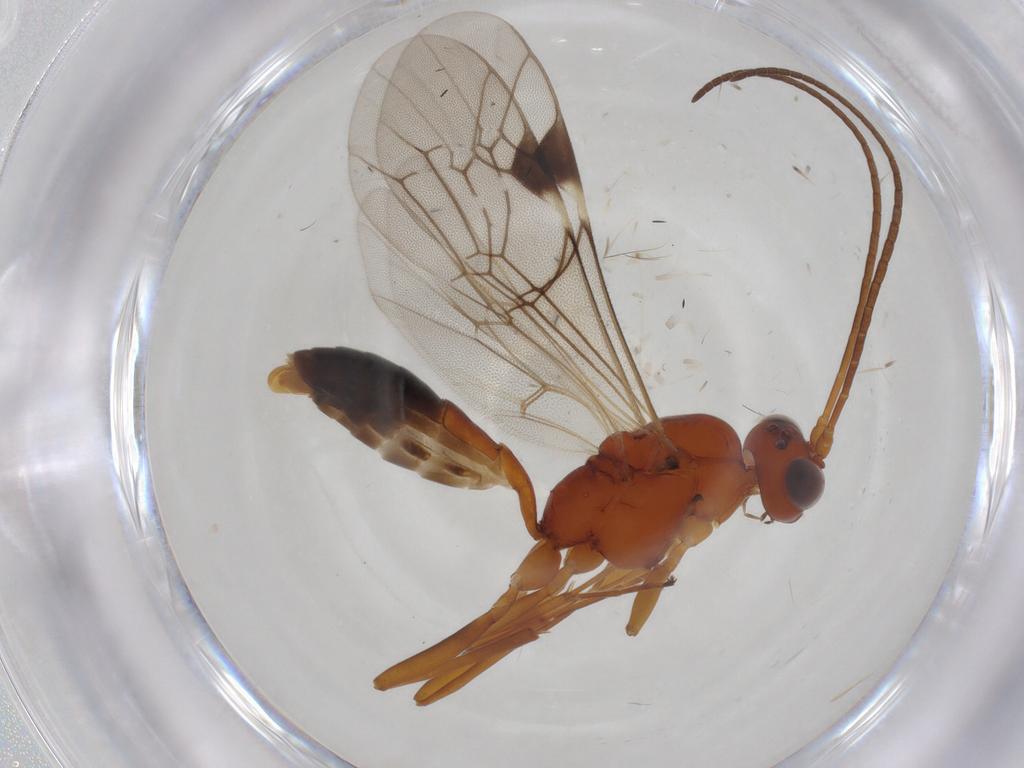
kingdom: Animalia
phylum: Arthropoda
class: Insecta
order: Hymenoptera
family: Ichneumonidae
